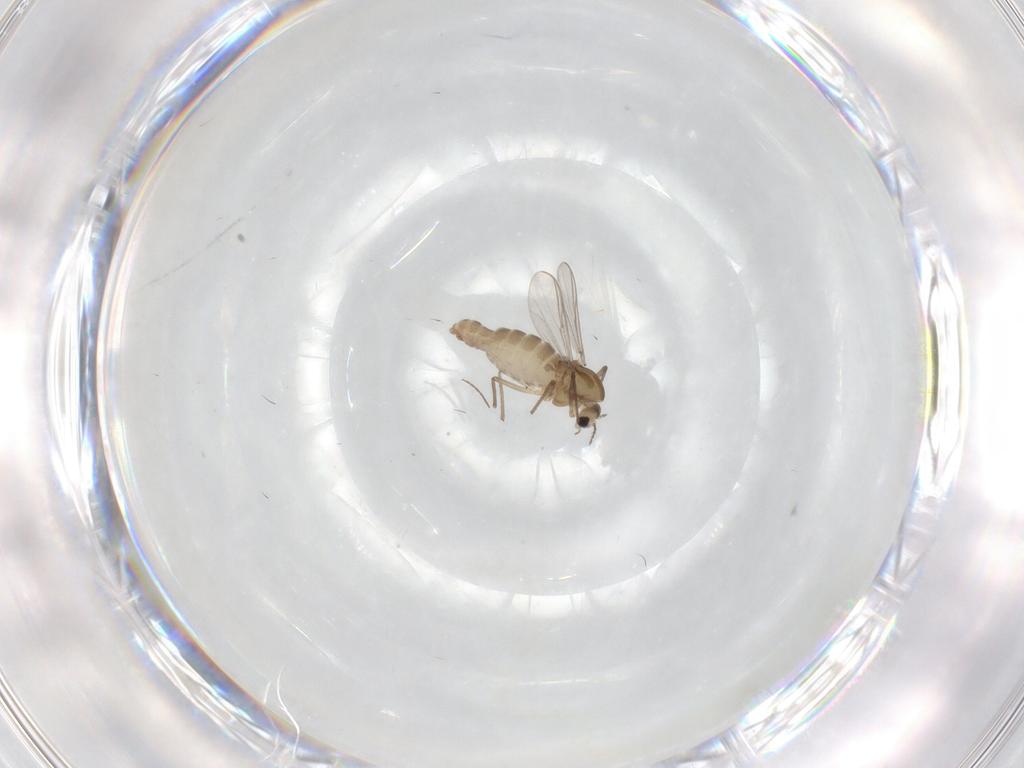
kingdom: Animalia
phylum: Arthropoda
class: Insecta
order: Diptera
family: Chironomidae
